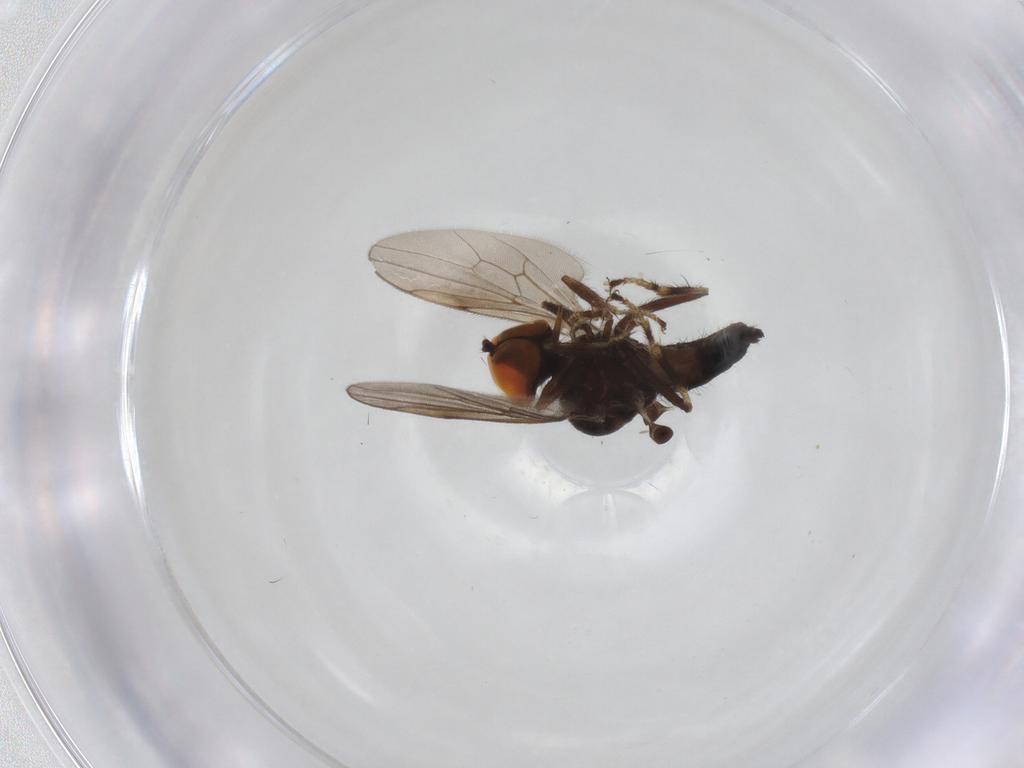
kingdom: Animalia
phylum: Arthropoda
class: Insecta
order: Diptera
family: Hybotidae
